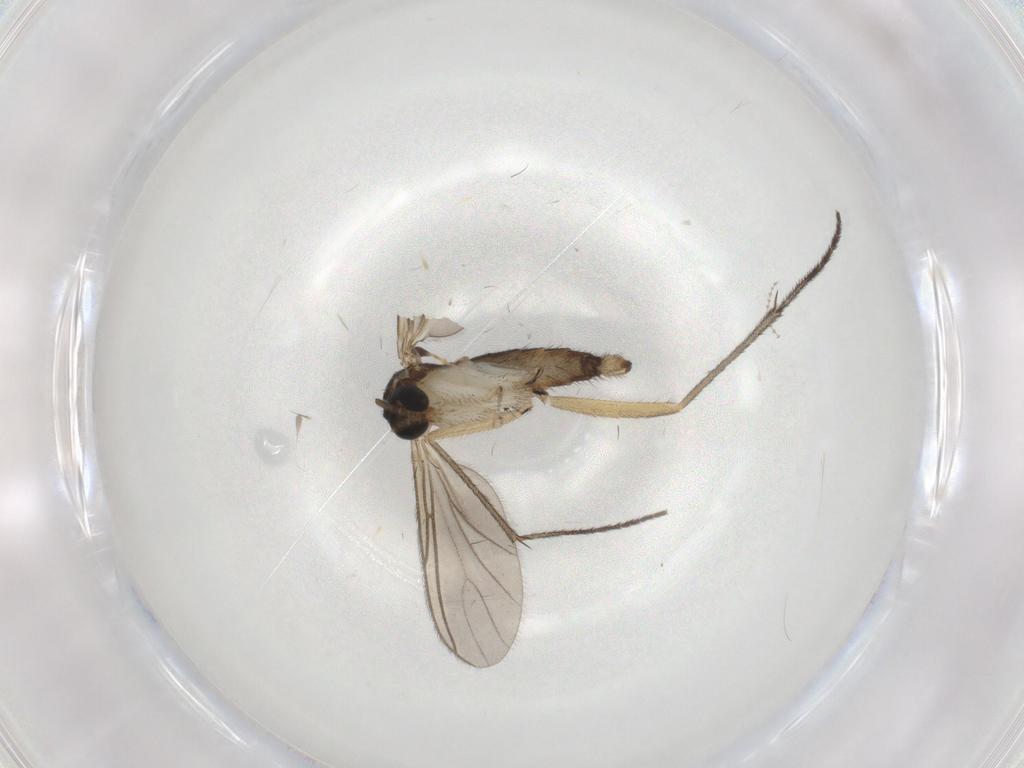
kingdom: Animalia
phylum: Arthropoda
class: Insecta
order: Diptera
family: Sciaridae
